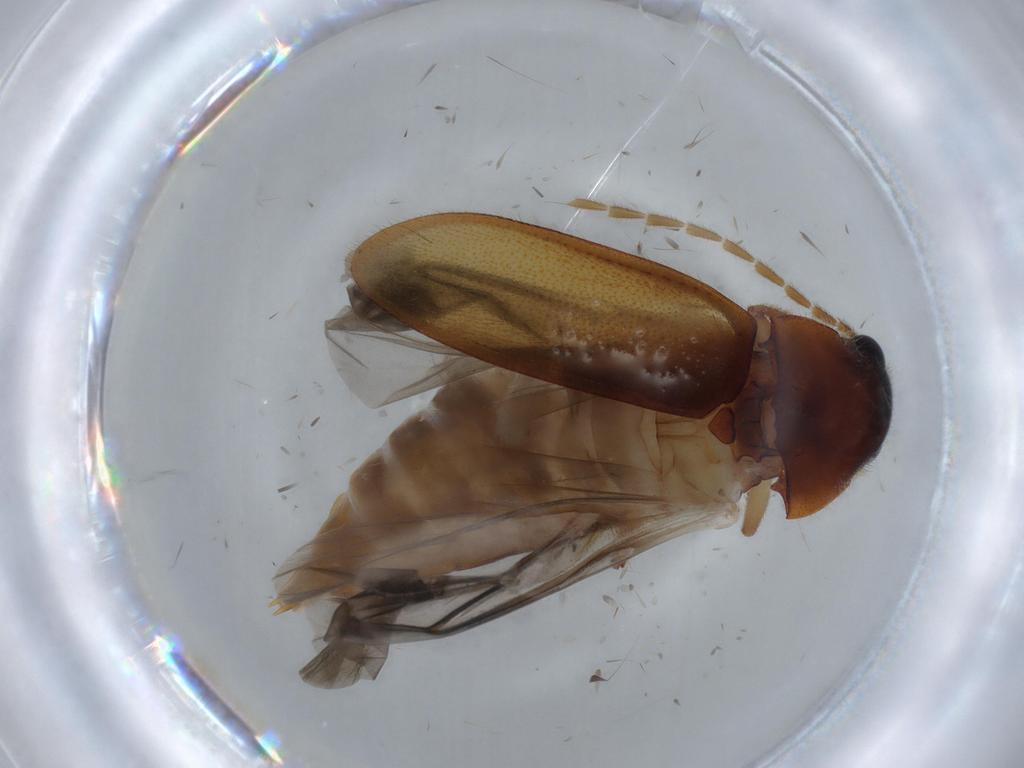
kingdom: Animalia
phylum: Arthropoda
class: Insecta
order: Coleoptera
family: Ptilodactylidae
